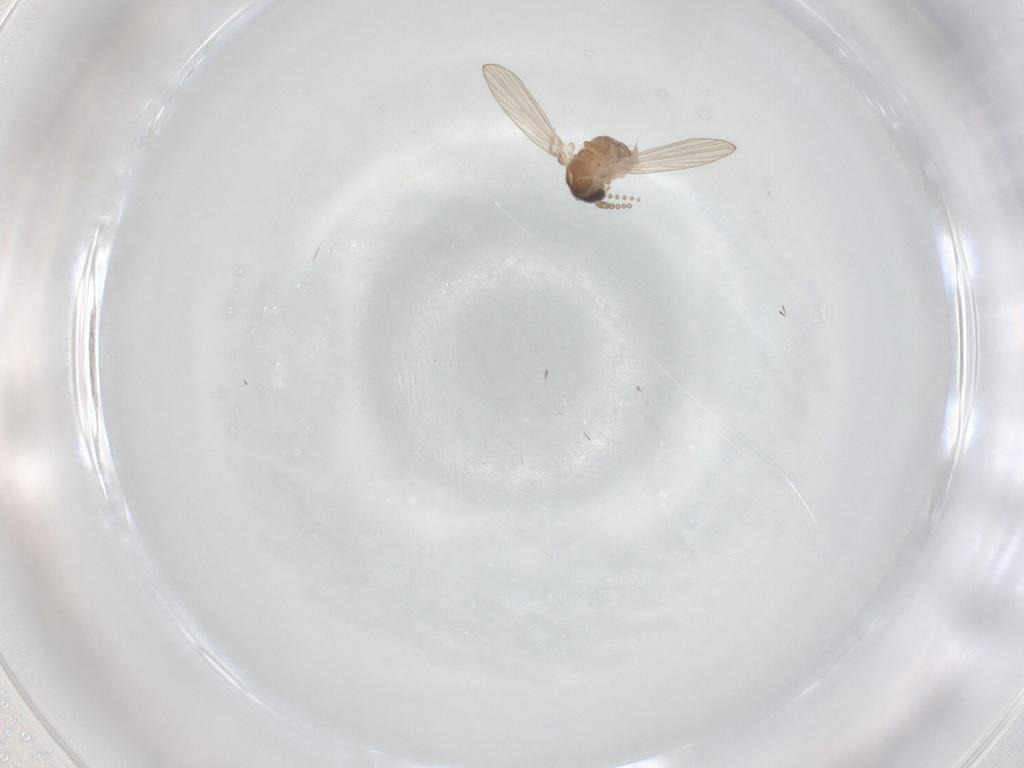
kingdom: Animalia
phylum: Arthropoda
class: Insecta
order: Diptera
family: Psychodidae
